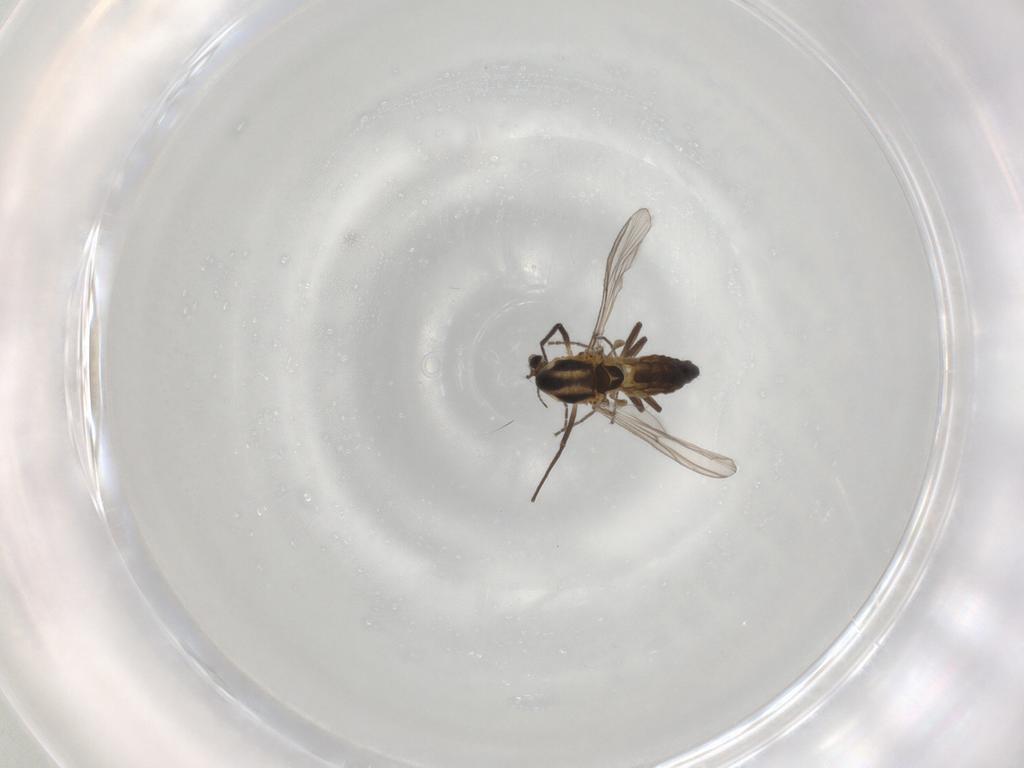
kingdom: Animalia
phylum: Arthropoda
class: Insecta
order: Diptera
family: Chironomidae
